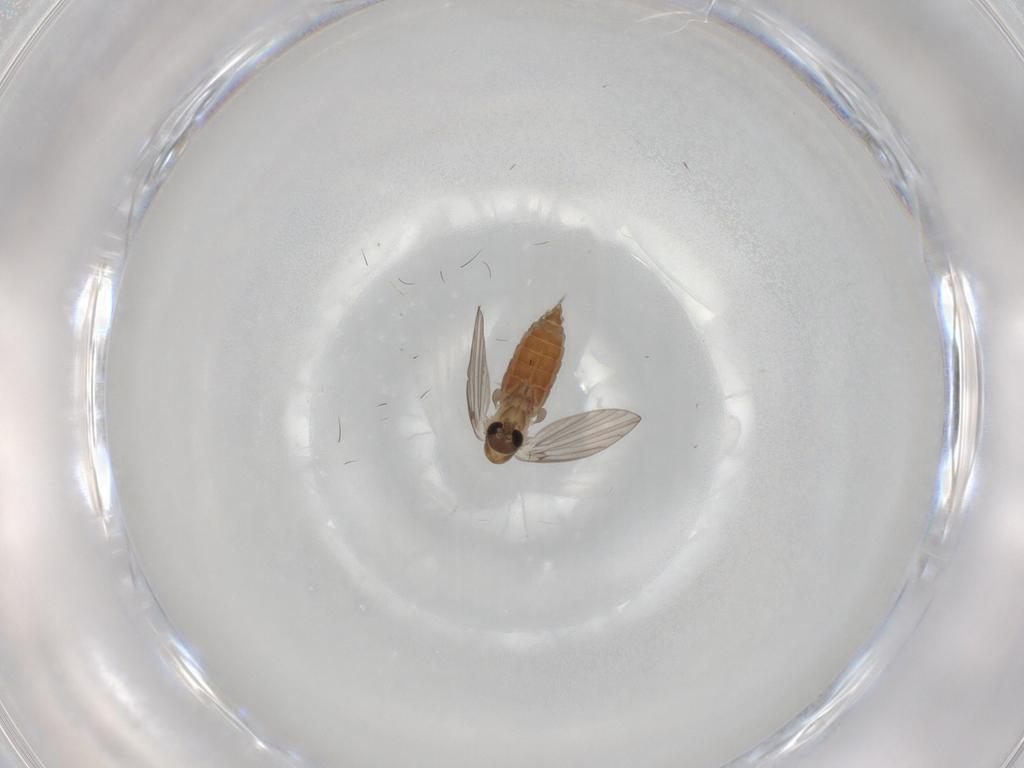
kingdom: Animalia
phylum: Arthropoda
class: Insecta
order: Diptera
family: Psychodidae
